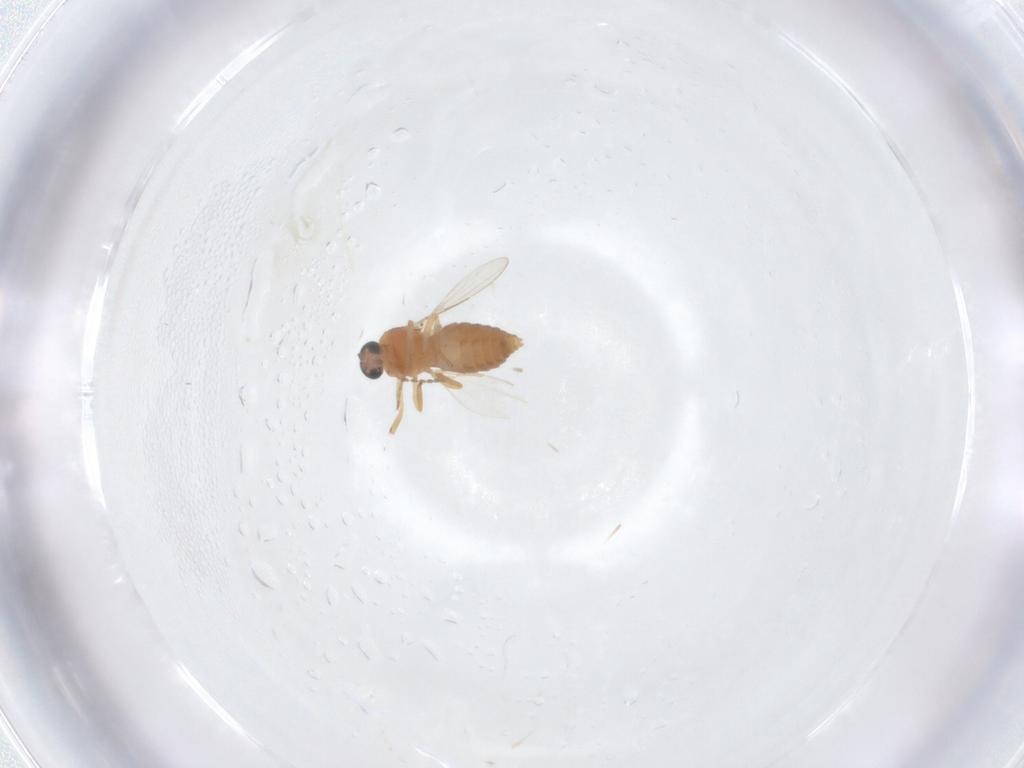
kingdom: Animalia
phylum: Arthropoda
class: Insecta
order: Diptera
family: Cecidomyiidae
